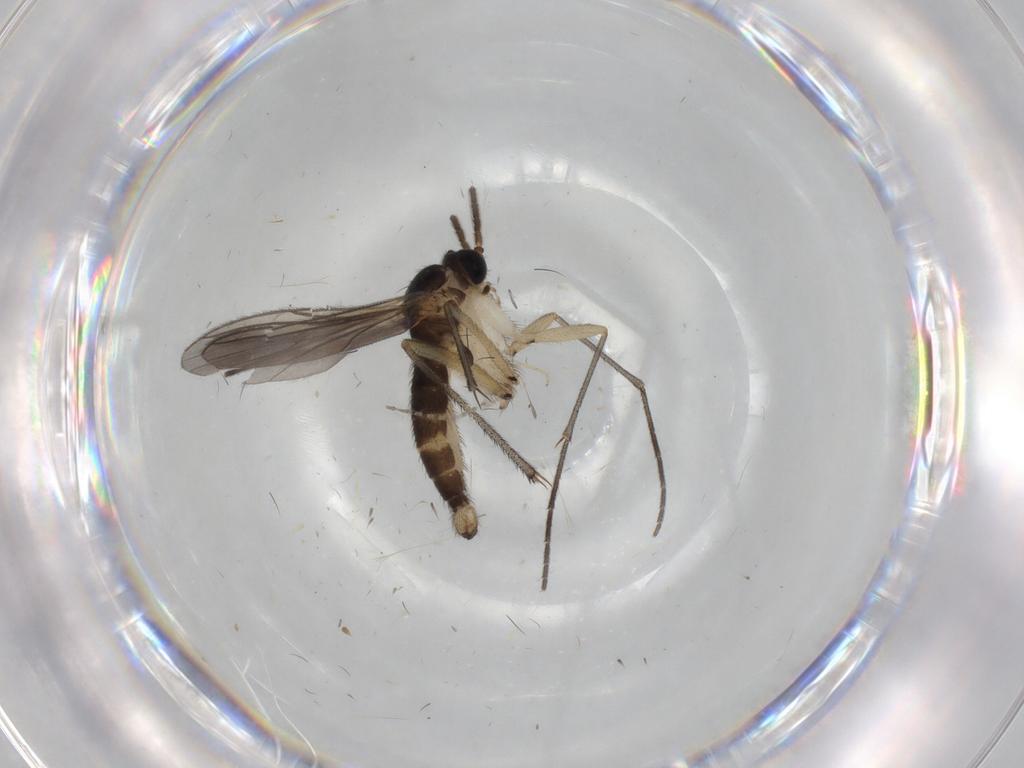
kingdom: Animalia
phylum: Arthropoda
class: Insecta
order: Diptera
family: Sciaridae
